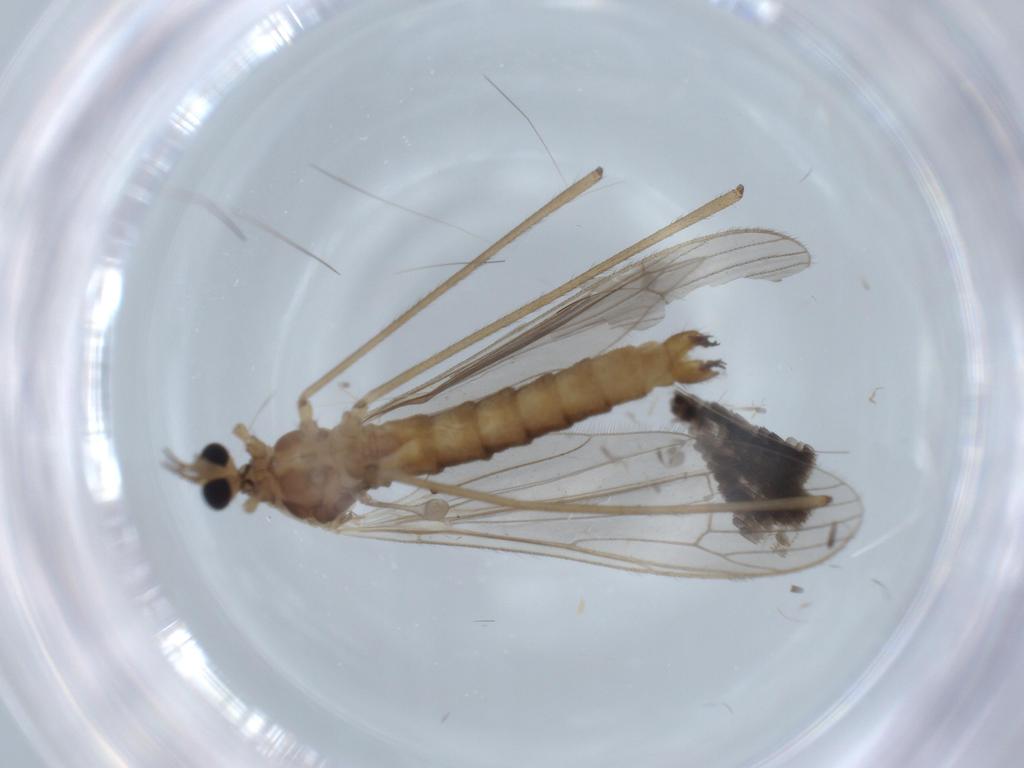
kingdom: Animalia
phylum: Arthropoda
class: Insecta
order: Diptera
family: Limoniidae
